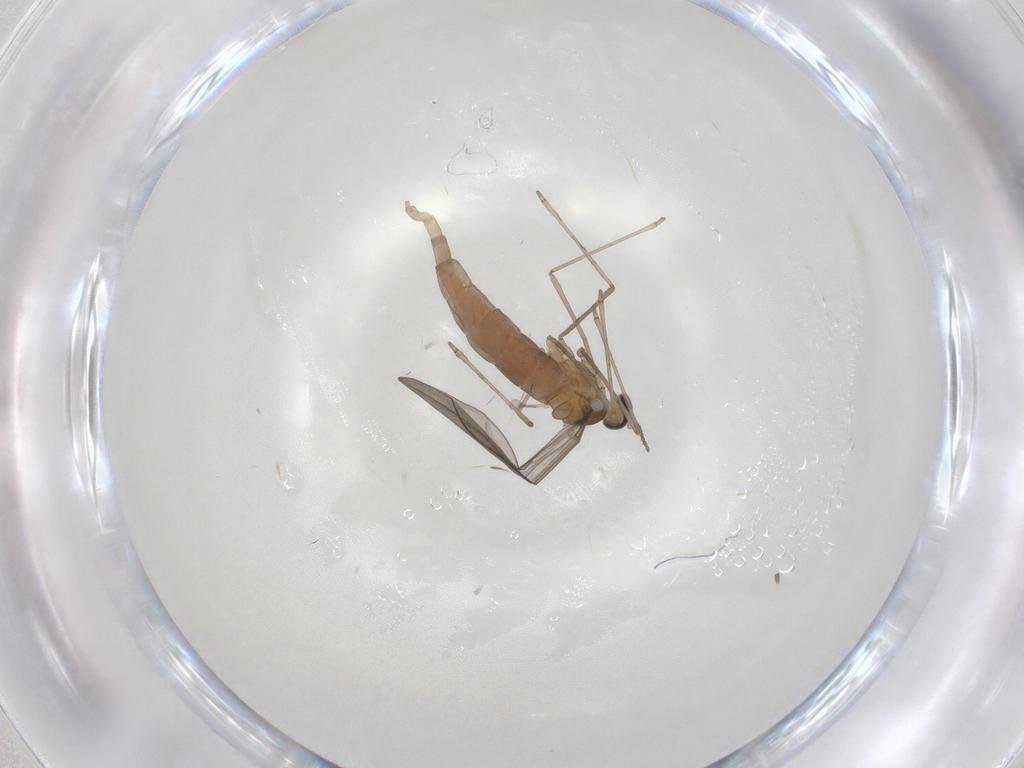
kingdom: Animalia
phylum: Arthropoda
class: Insecta
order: Diptera
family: Cecidomyiidae
